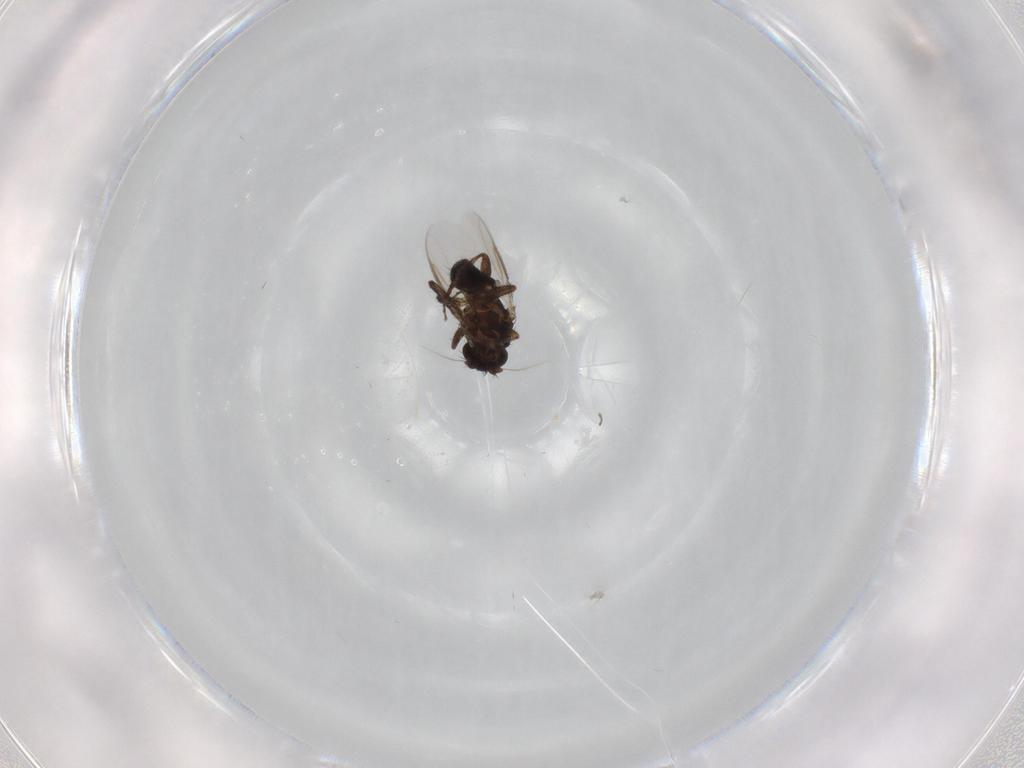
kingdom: Animalia
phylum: Arthropoda
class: Insecta
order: Diptera
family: Sphaeroceridae
